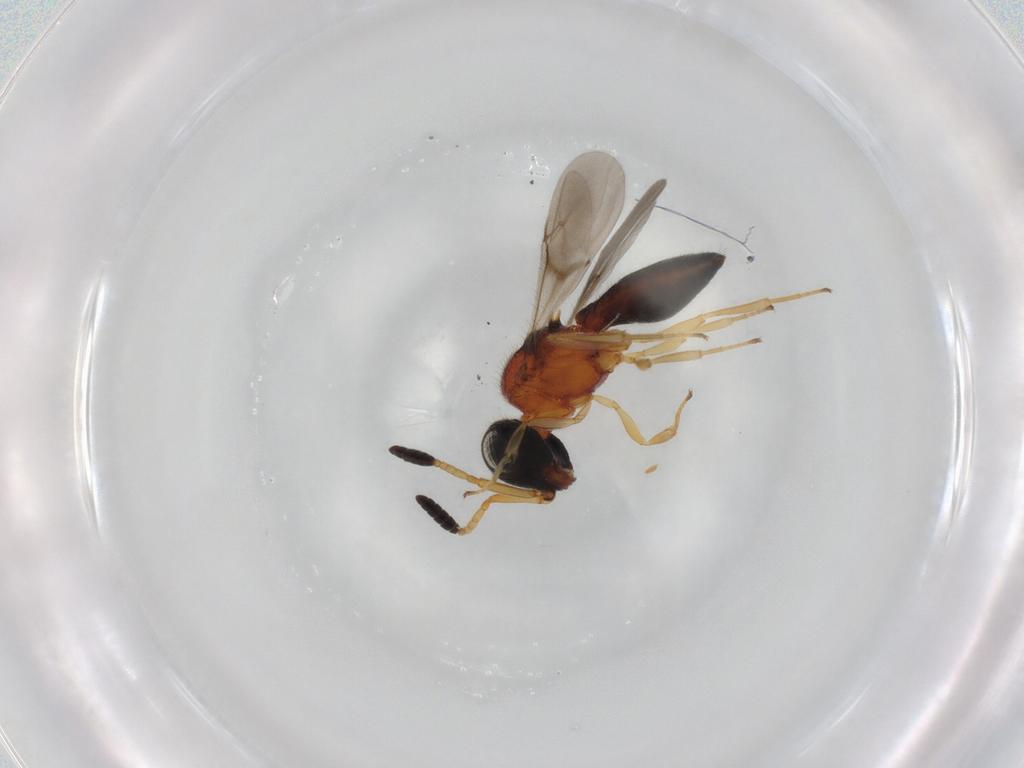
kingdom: Animalia
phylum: Arthropoda
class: Insecta
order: Hymenoptera
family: Scelionidae
